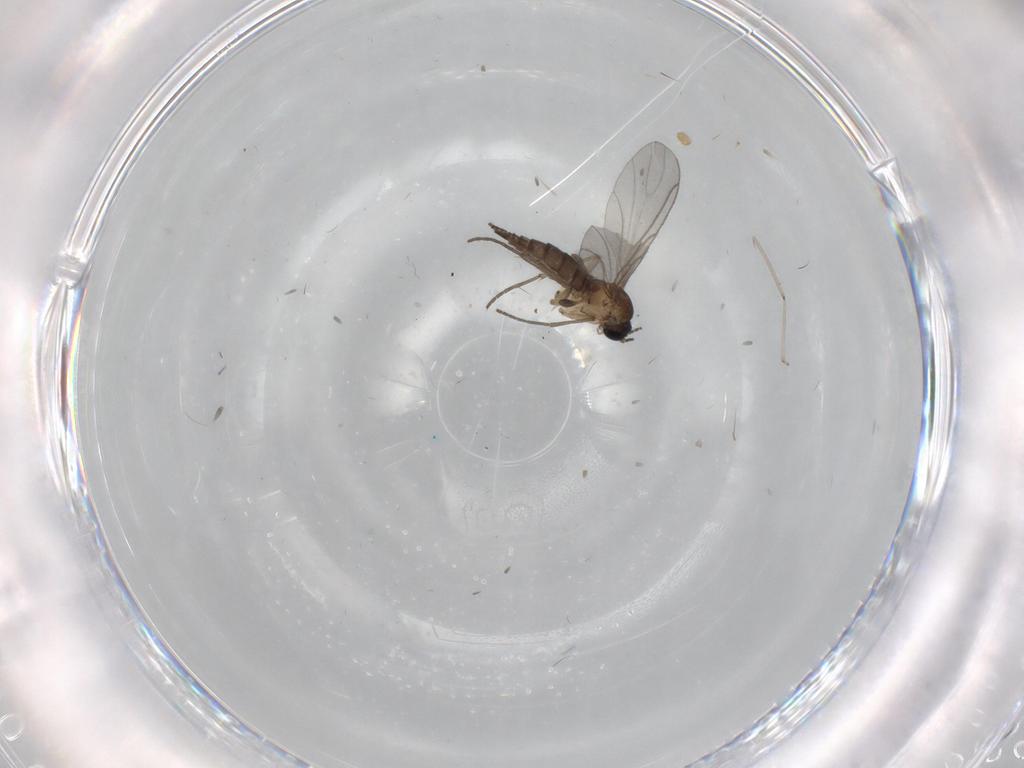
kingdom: Animalia
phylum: Arthropoda
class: Insecta
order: Diptera
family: Sciaridae
